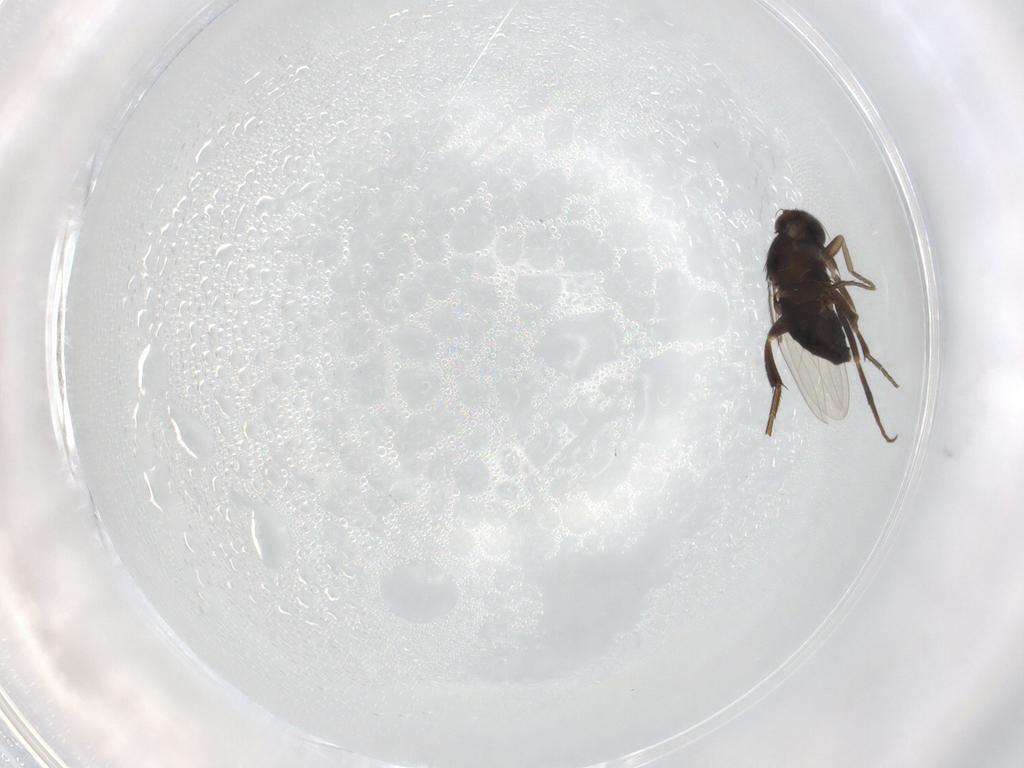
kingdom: Animalia
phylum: Arthropoda
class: Insecta
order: Diptera
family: Phoridae
